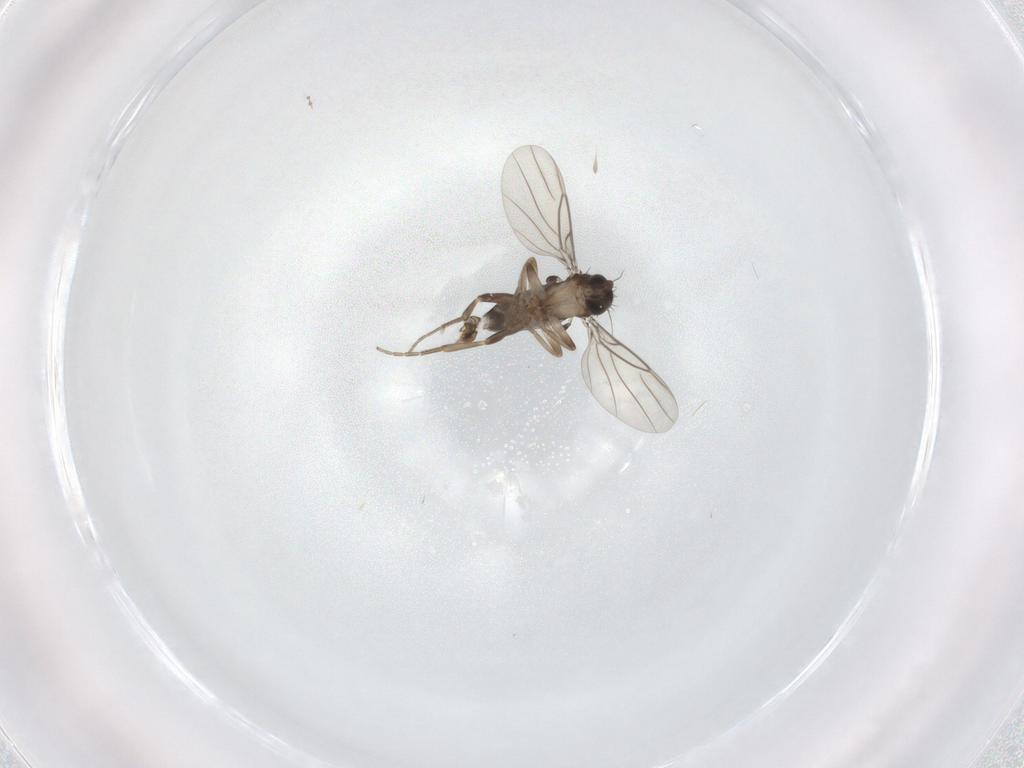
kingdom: Animalia
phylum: Arthropoda
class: Insecta
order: Diptera
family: Phoridae
